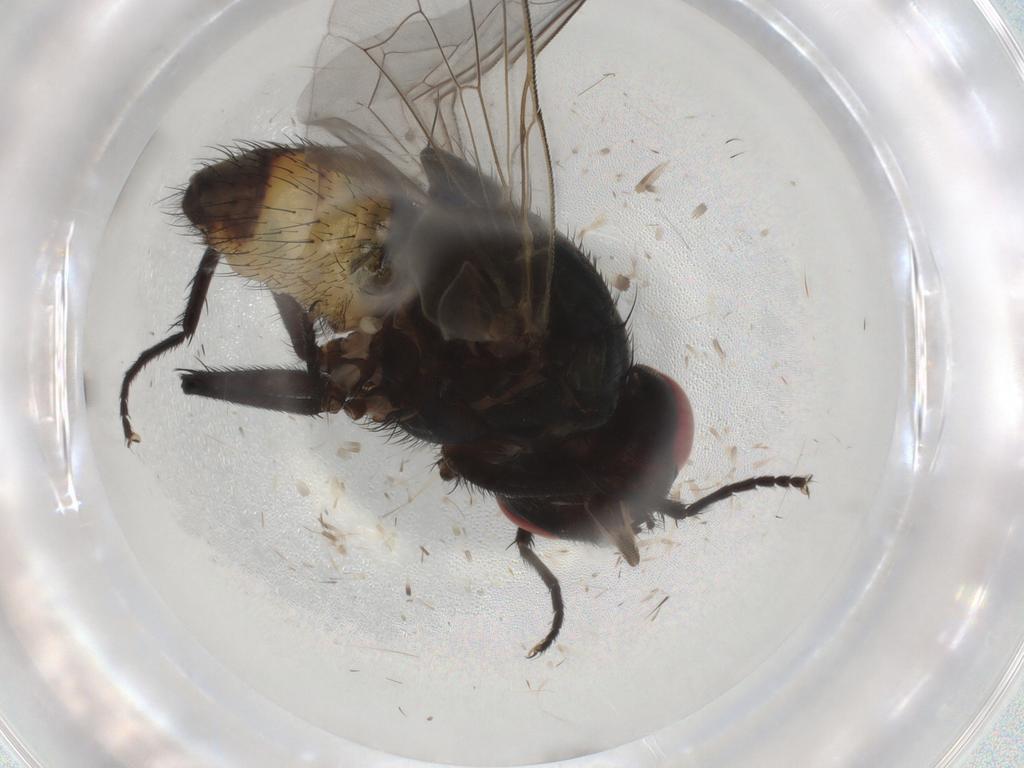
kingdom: Animalia
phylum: Arthropoda
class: Insecta
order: Diptera
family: Muscidae
